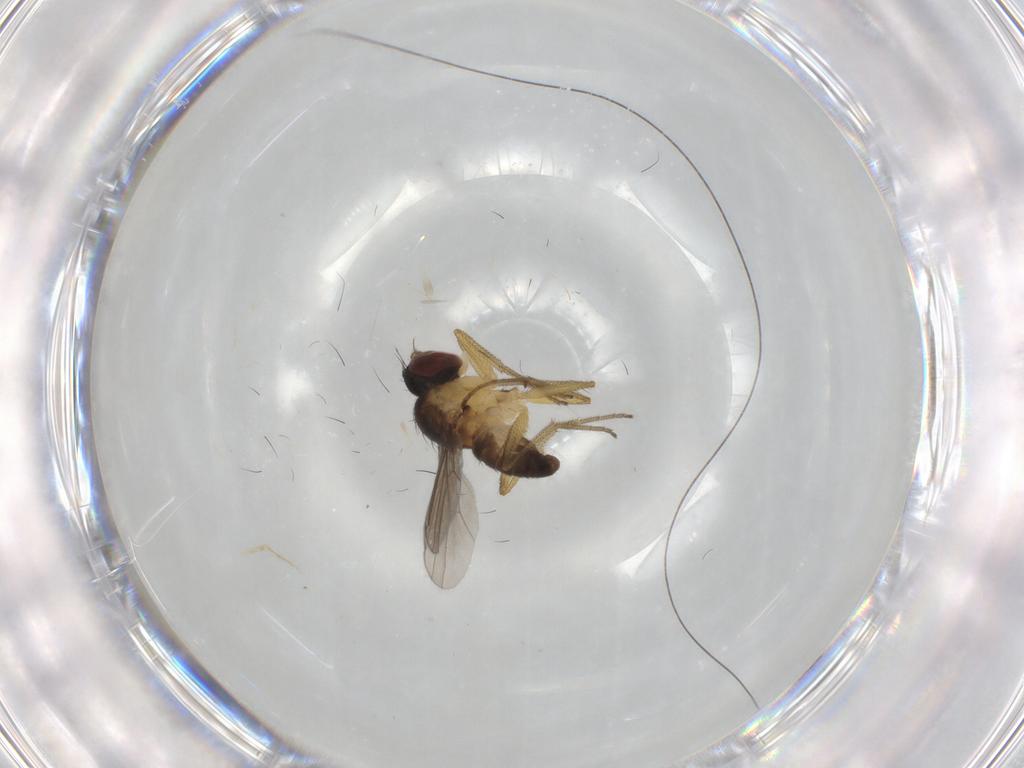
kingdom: Animalia
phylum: Arthropoda
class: Insecta
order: Diptera
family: Dolichopodidae
